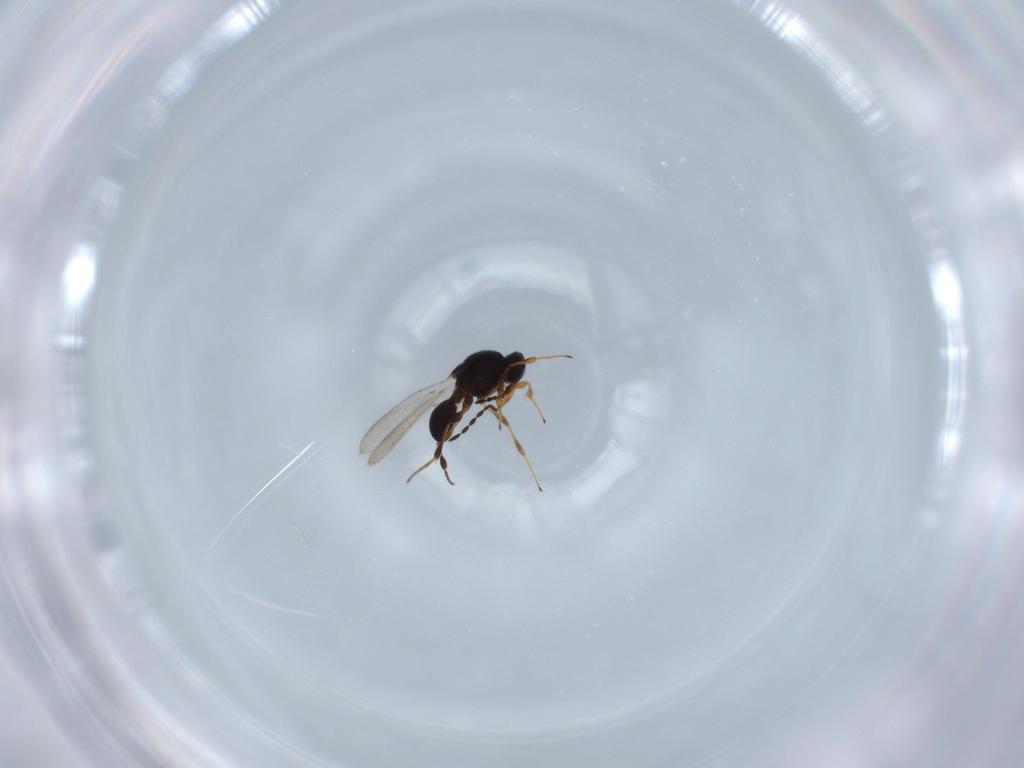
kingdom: Animalia
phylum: Arthropoda
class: Insecta
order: Hymenoptera
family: Platygastridae
